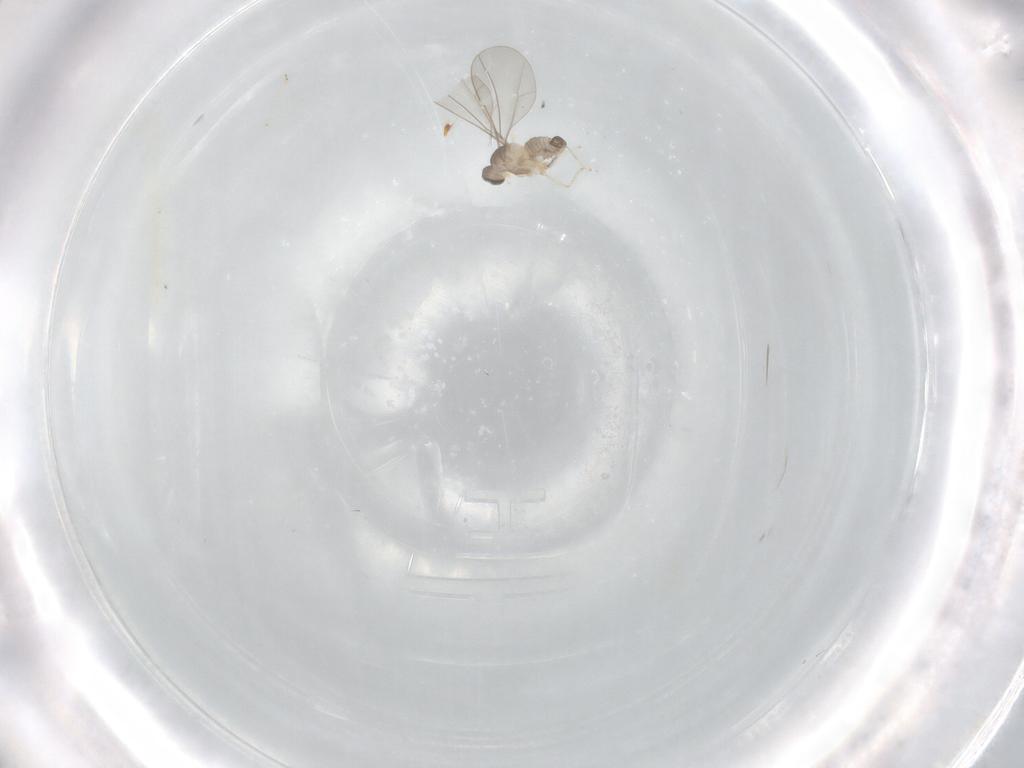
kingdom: Animalia
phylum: Arthropoda
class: Insecta
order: Diptera
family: Cecidomyiidae
